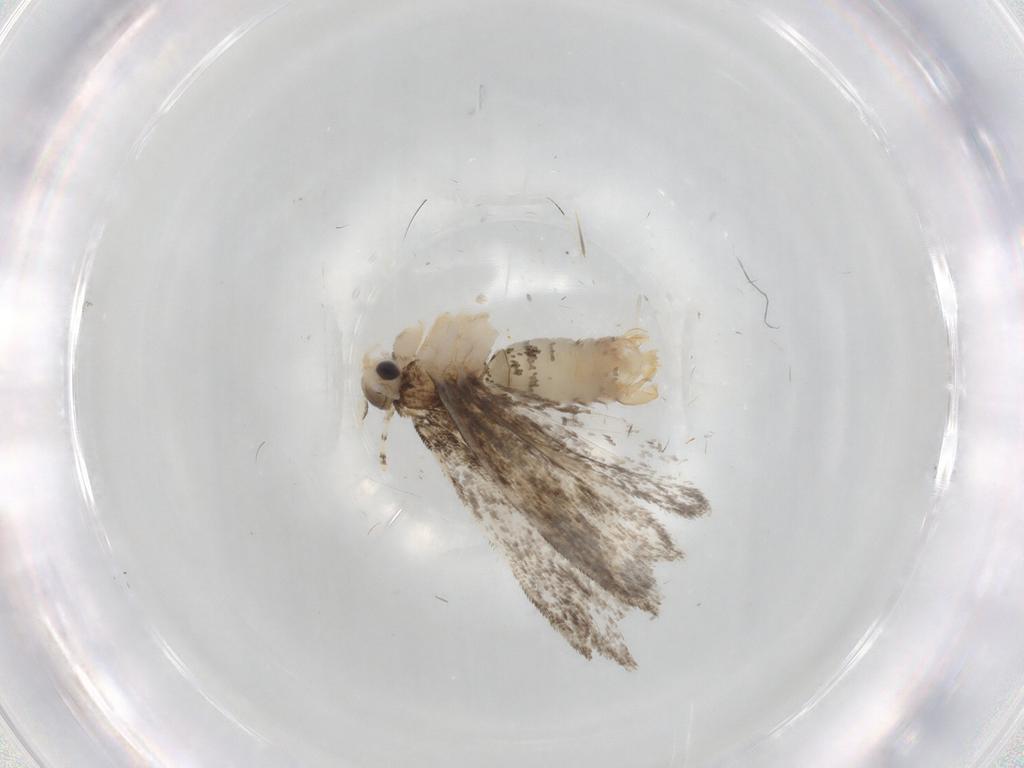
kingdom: Animalia
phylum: Arthropoda
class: Insecta
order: Lepidoptera
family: Tineidae
